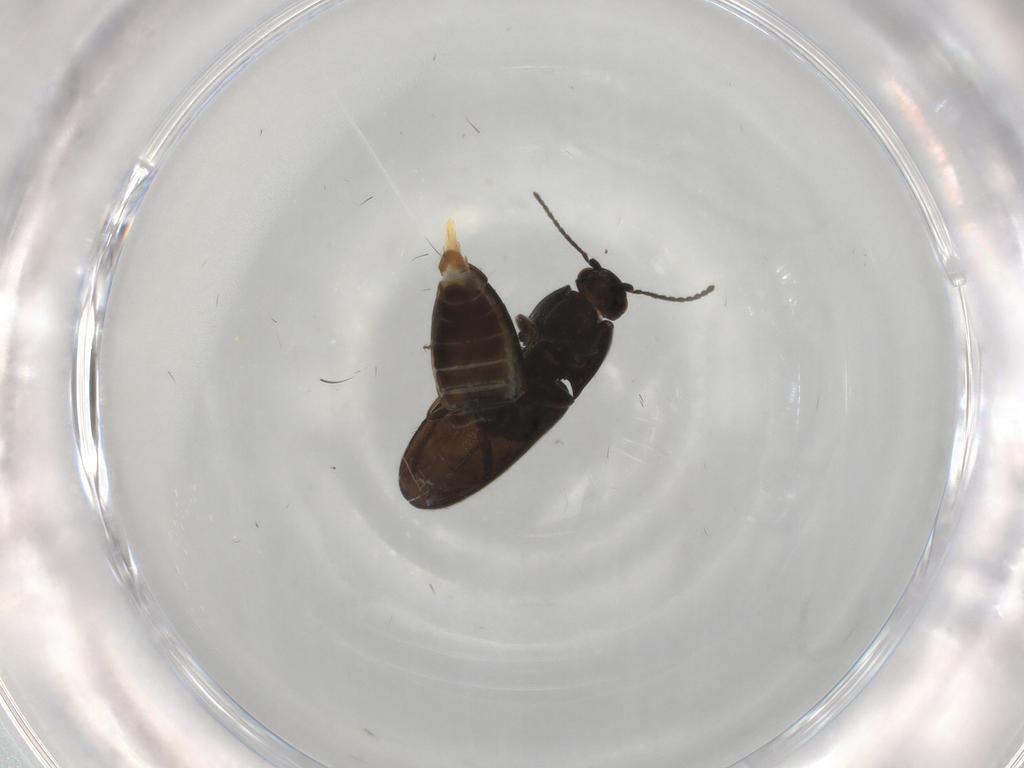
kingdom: Animalia
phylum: Arthropoda
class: Insecta
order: Coleoptera
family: Elateridae
